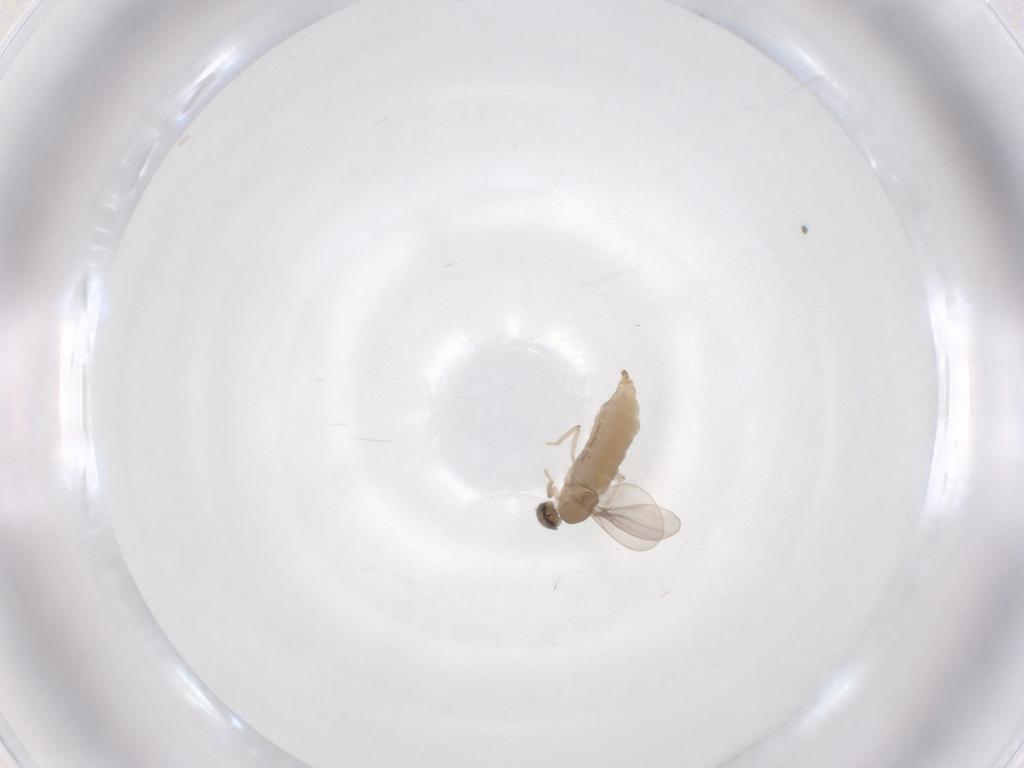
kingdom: Animalia
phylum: Arthropoda
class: Insecta
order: Diptera
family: Cecidomyiidae
